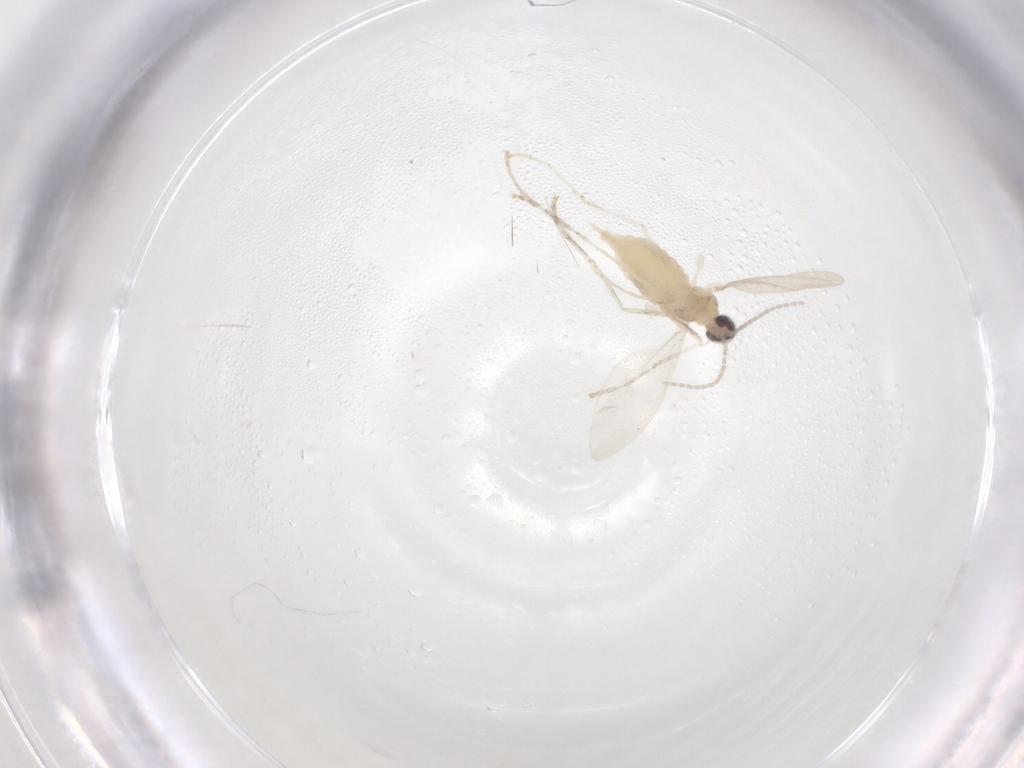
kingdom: Animalia
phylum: Arthropoda
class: Insecta
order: Diptera
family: Cecidomyiidae
